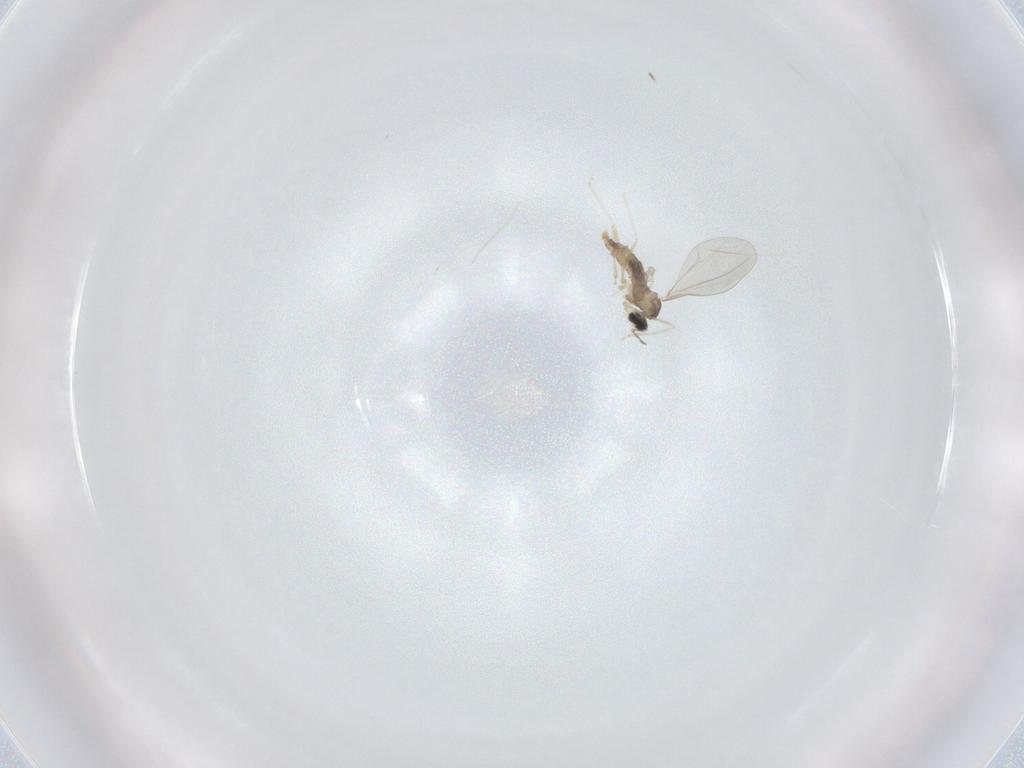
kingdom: Animalia
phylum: Arthropoda
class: Insecta
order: Diptera
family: Cecidomyiidae
